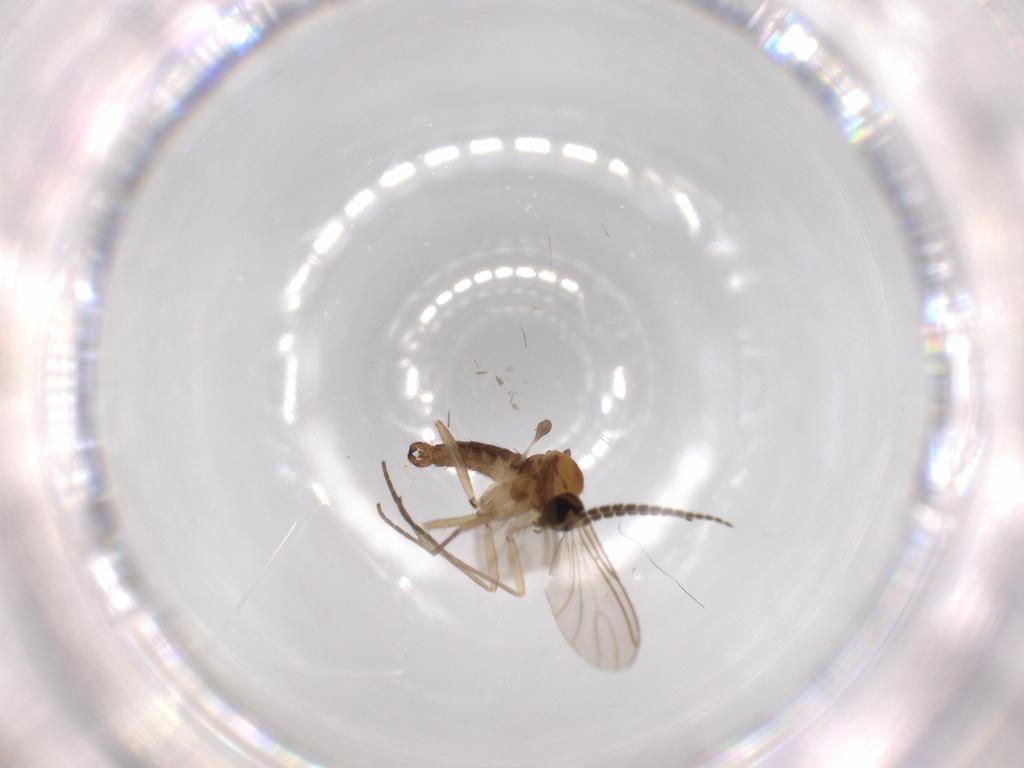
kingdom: Animalia
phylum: Arthropoda
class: Insecta
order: Diptera
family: Sciaridae
